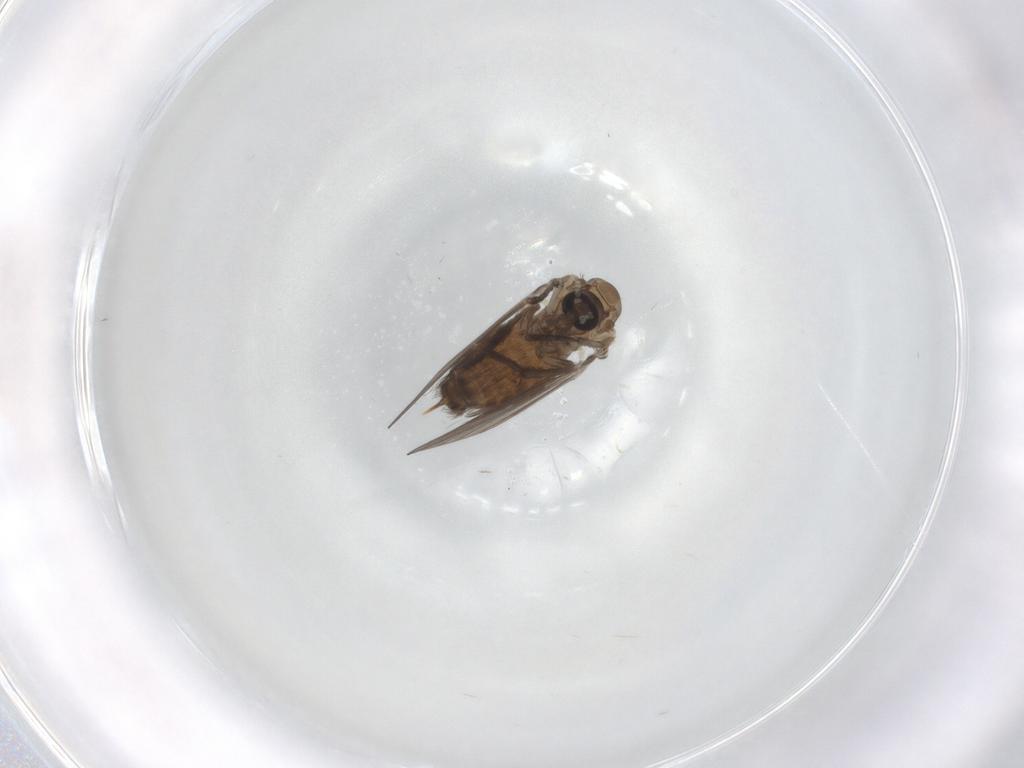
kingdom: Animalia
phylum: Arthropoda
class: Insecta
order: Diptera
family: Psychodidae
